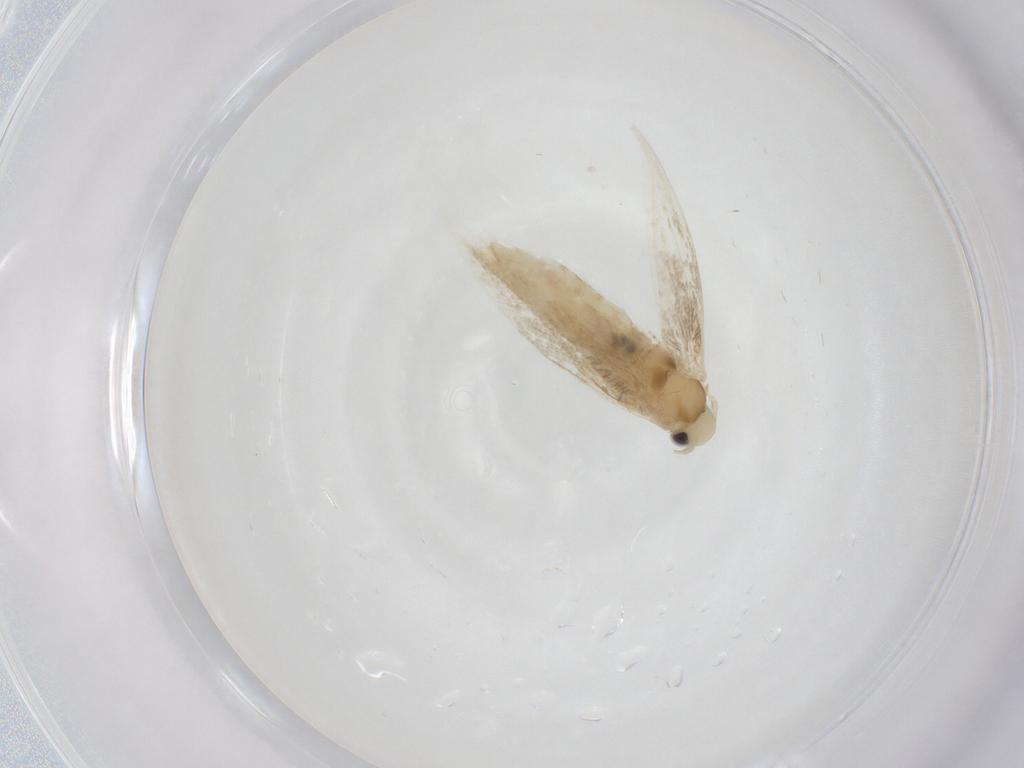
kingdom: Animalia
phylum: Arthropoda
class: Insecta
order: Lepidoptera
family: Gracillariidae
